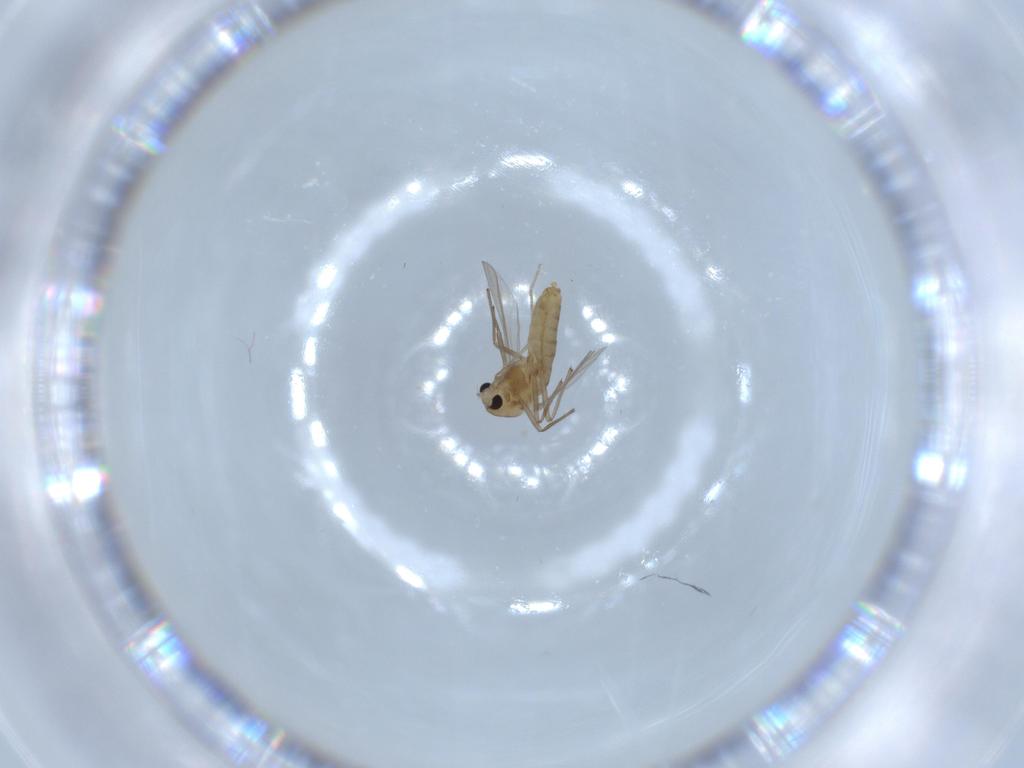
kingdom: Animalia
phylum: Arthropoda
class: Insecta
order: Diptera
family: Chironomidae
